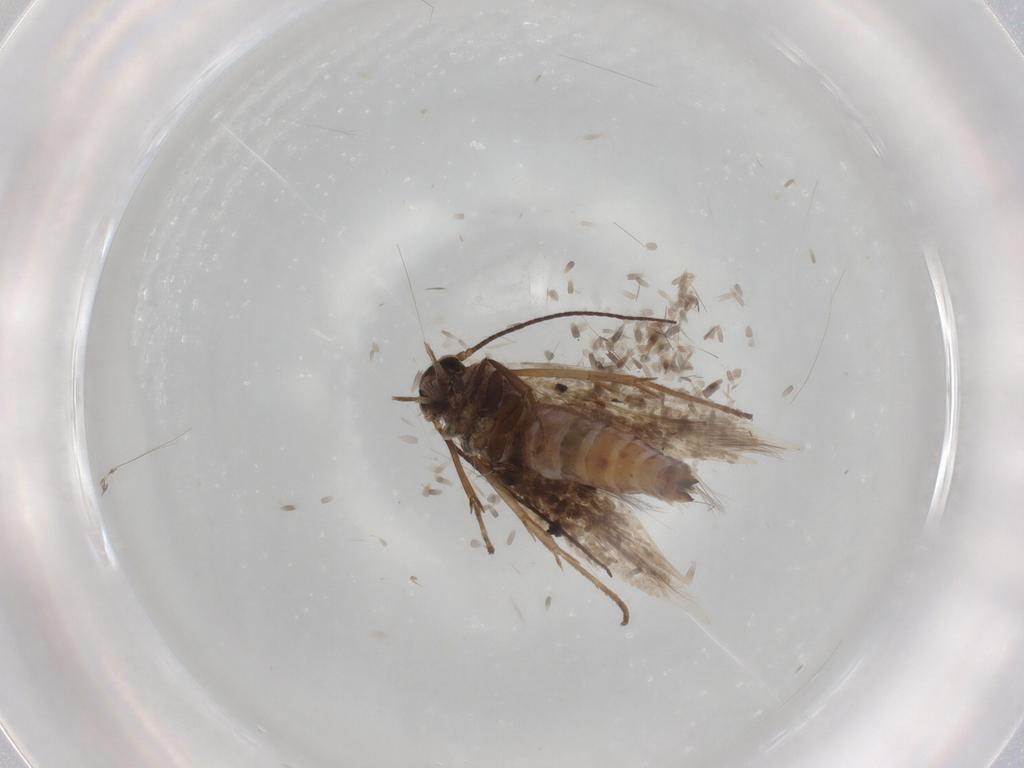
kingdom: Animalia
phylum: Arthropoda
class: Insecta
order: Lepidoptera
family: Scythrididae
